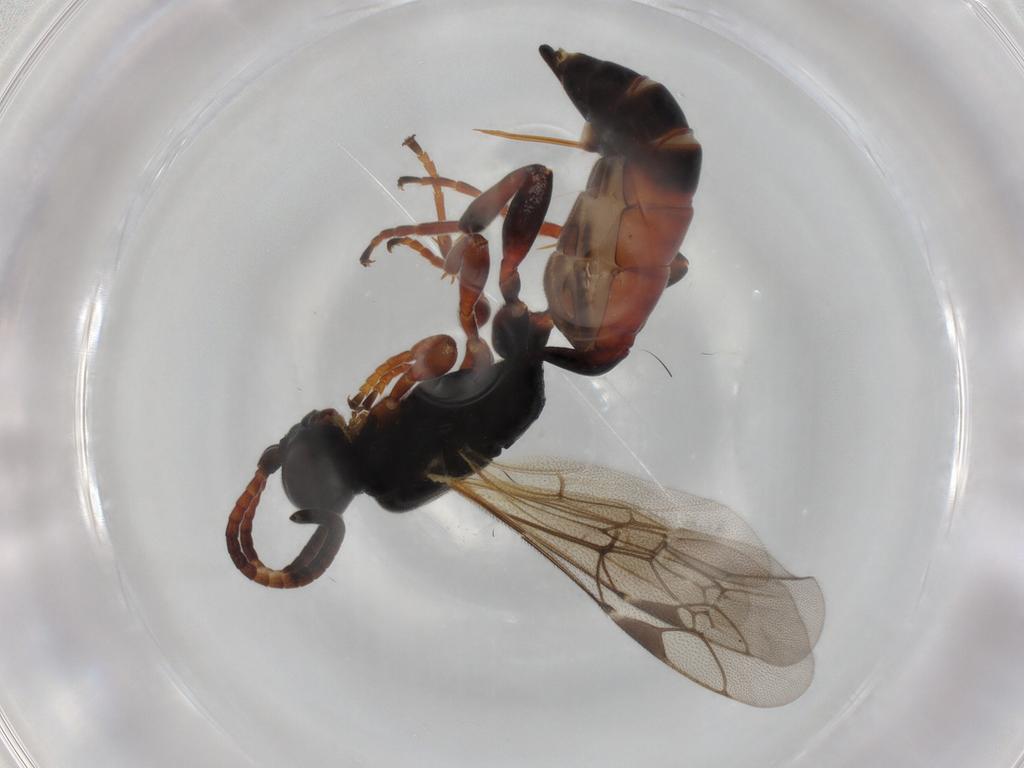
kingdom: Animalia
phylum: Arthropoda
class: Insecta
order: Hymenoptera
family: Ichneumonidae
